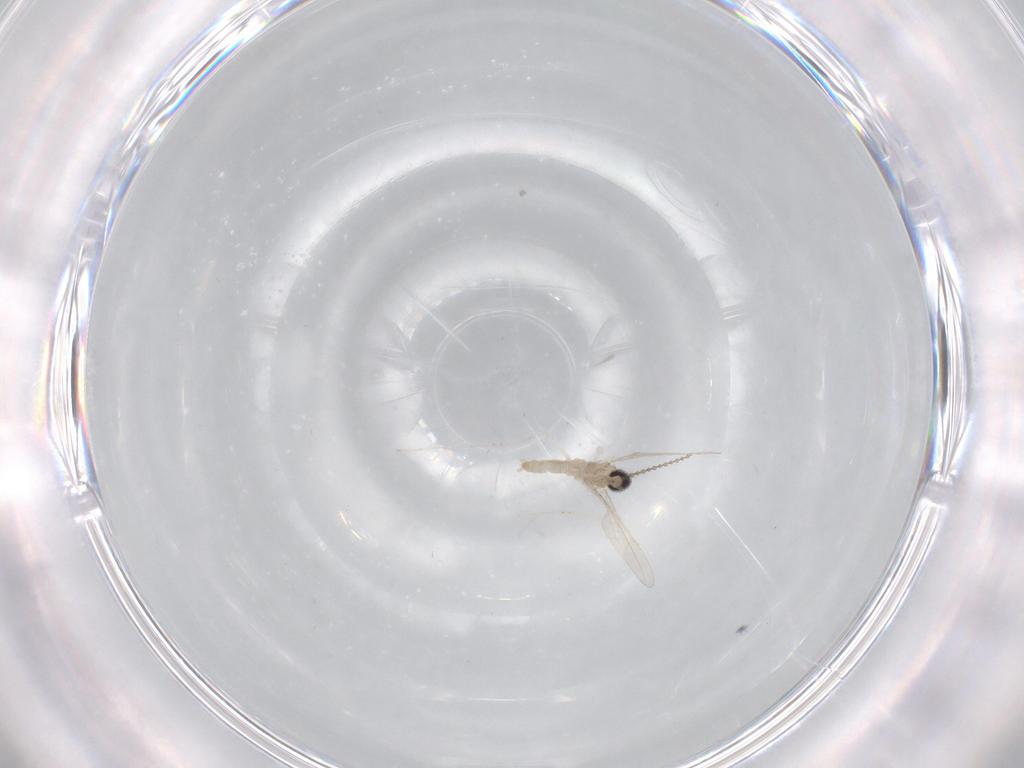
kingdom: Animalia
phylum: Arthropoda
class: Insecta
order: Diptera
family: Cecidomyiidae
